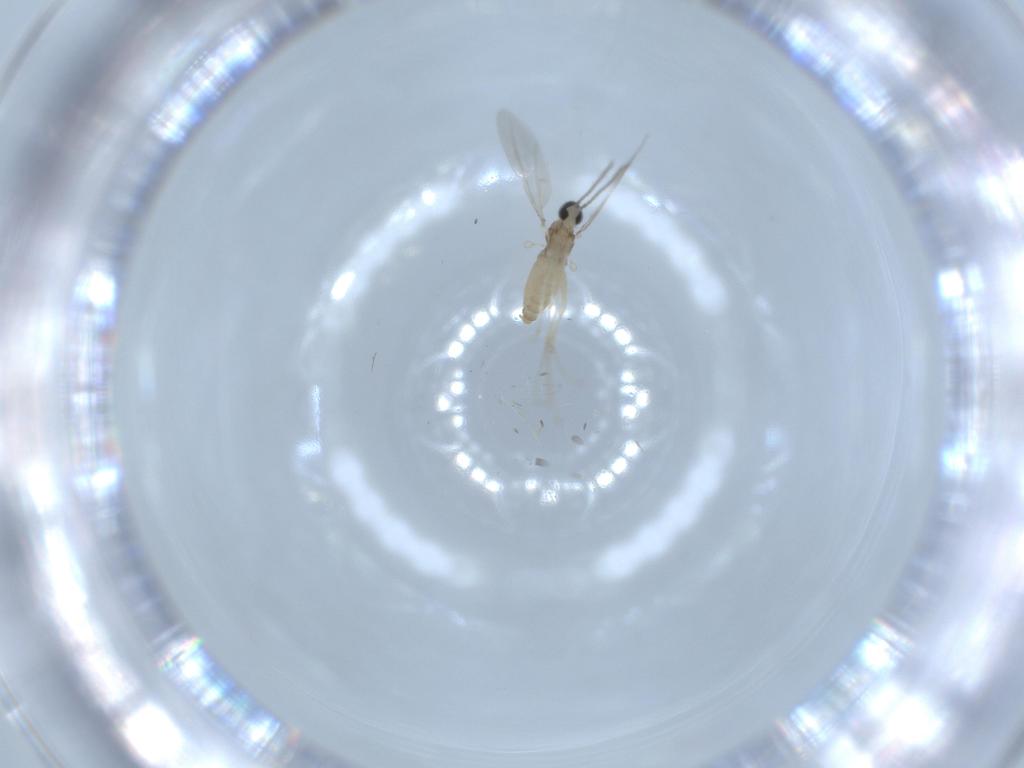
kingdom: Animalia
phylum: Arthropoda
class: Insecta
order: Diptera
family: Cecidomyiidae
